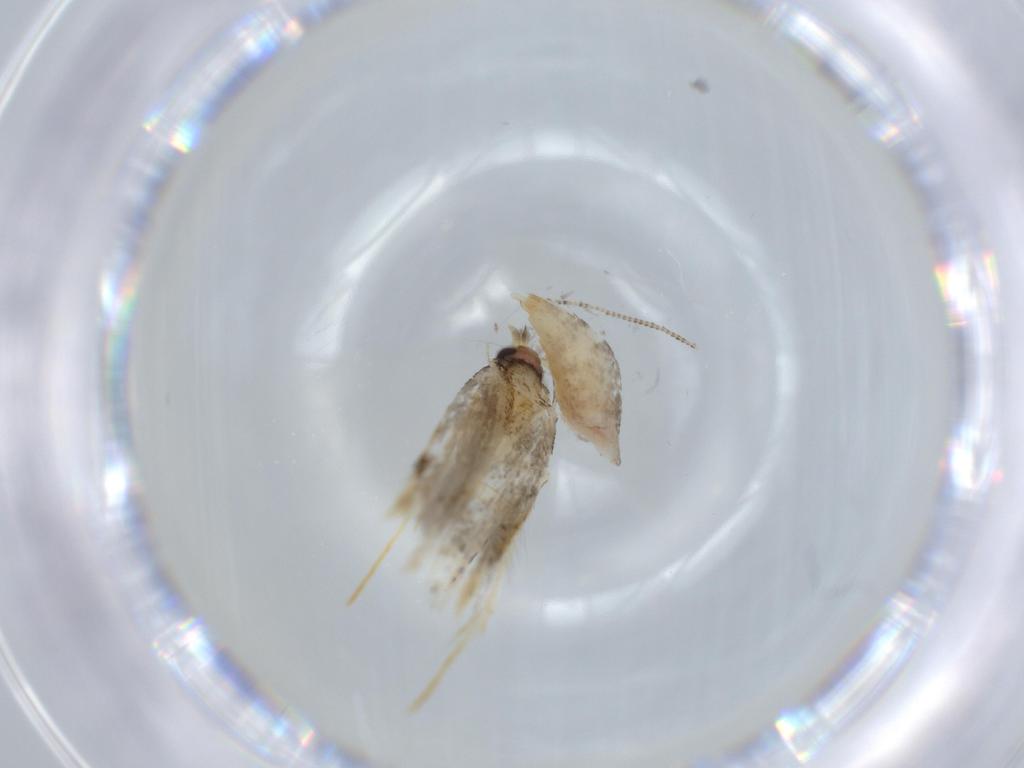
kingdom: Animalia
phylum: Arthropoda
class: Insecta
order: Lepidoptera
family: Tineidae
